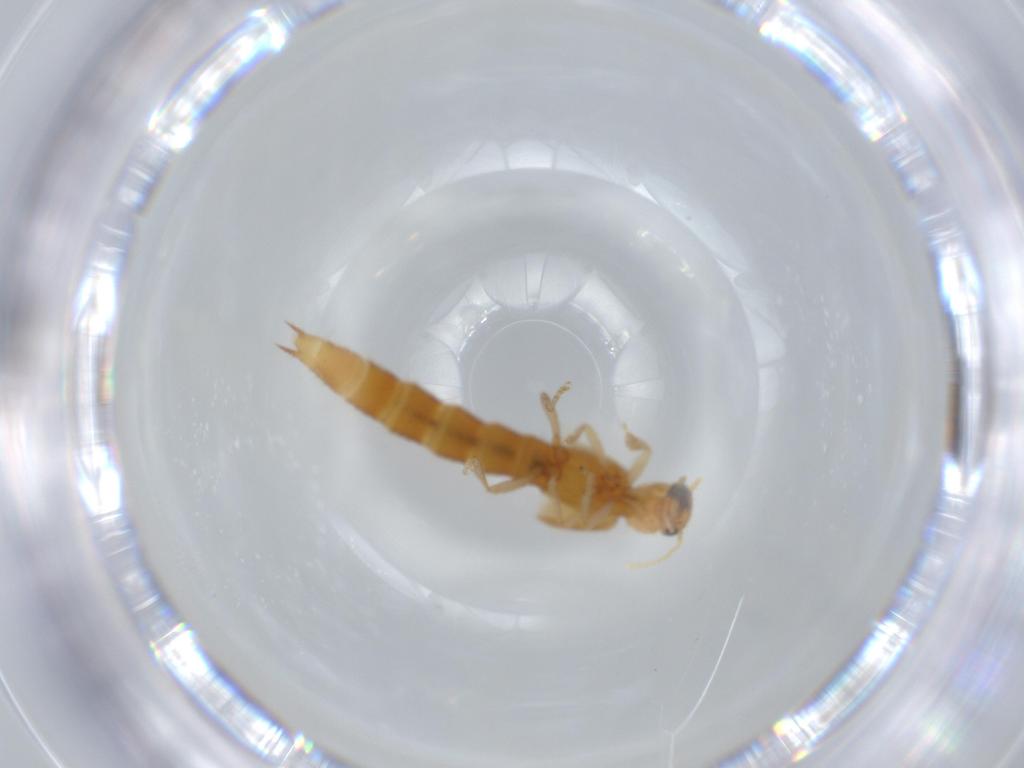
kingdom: Animalia
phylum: Arthropoda
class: Insecta
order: Coleoptera
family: Staphylinidae
